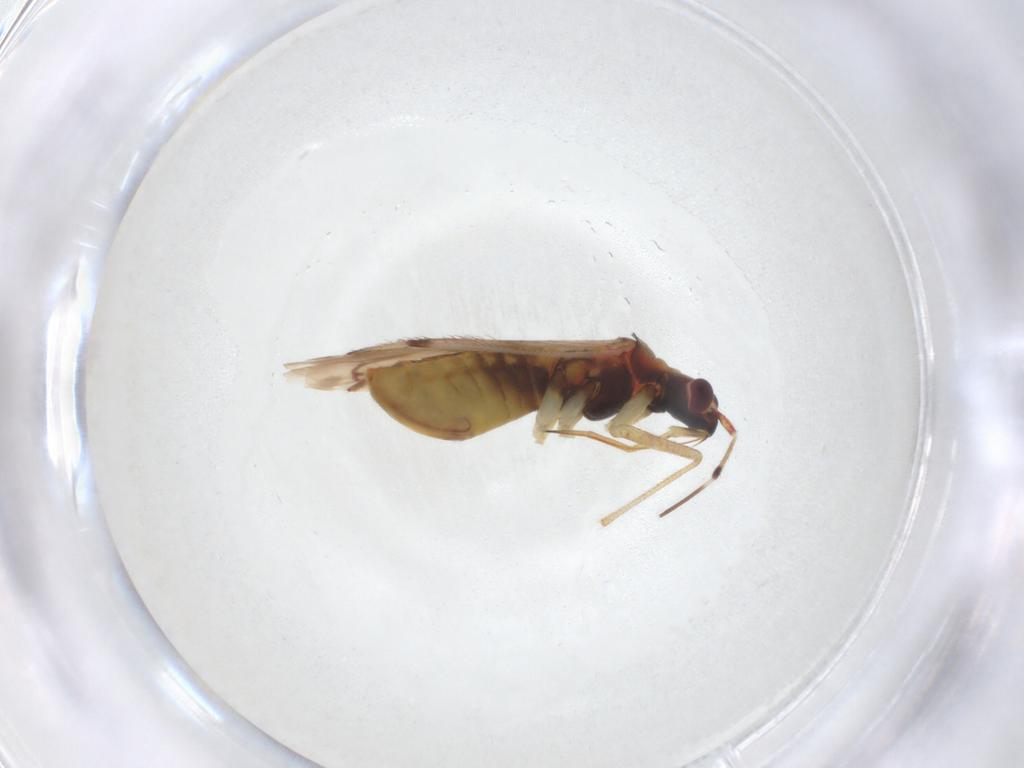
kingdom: Animalia
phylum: Arthropoda
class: Insecta
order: Hemiptera
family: Miridae
